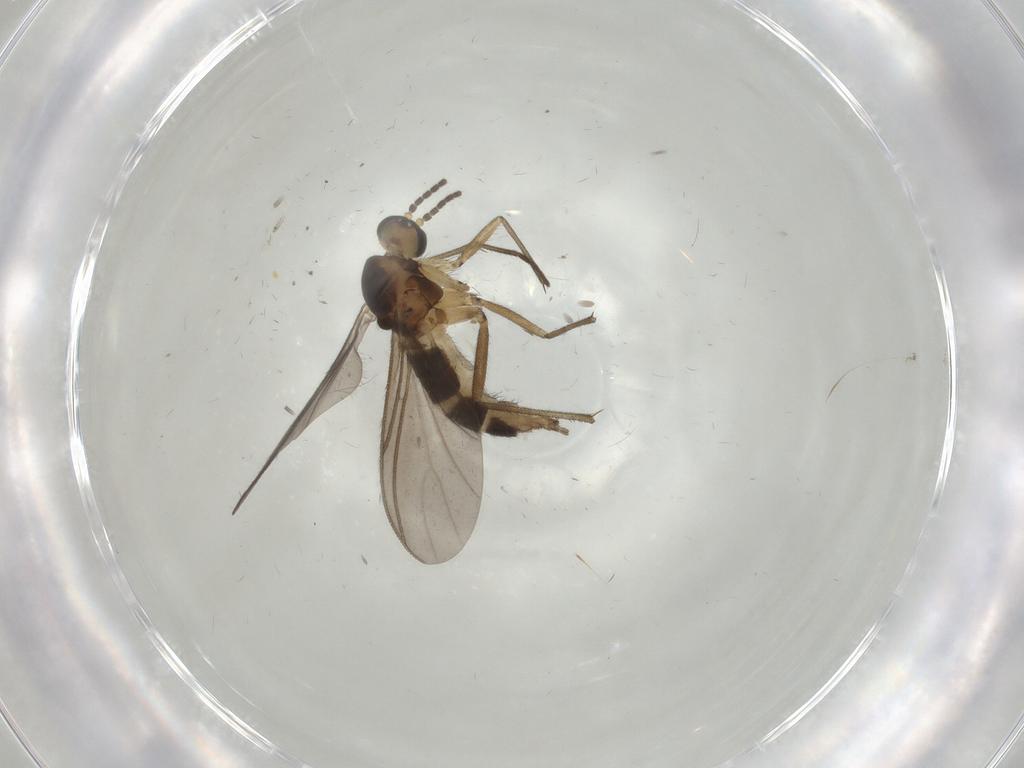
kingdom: Animalia
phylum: Arthropoda
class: Insecta
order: Diptera
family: Sciaridae
